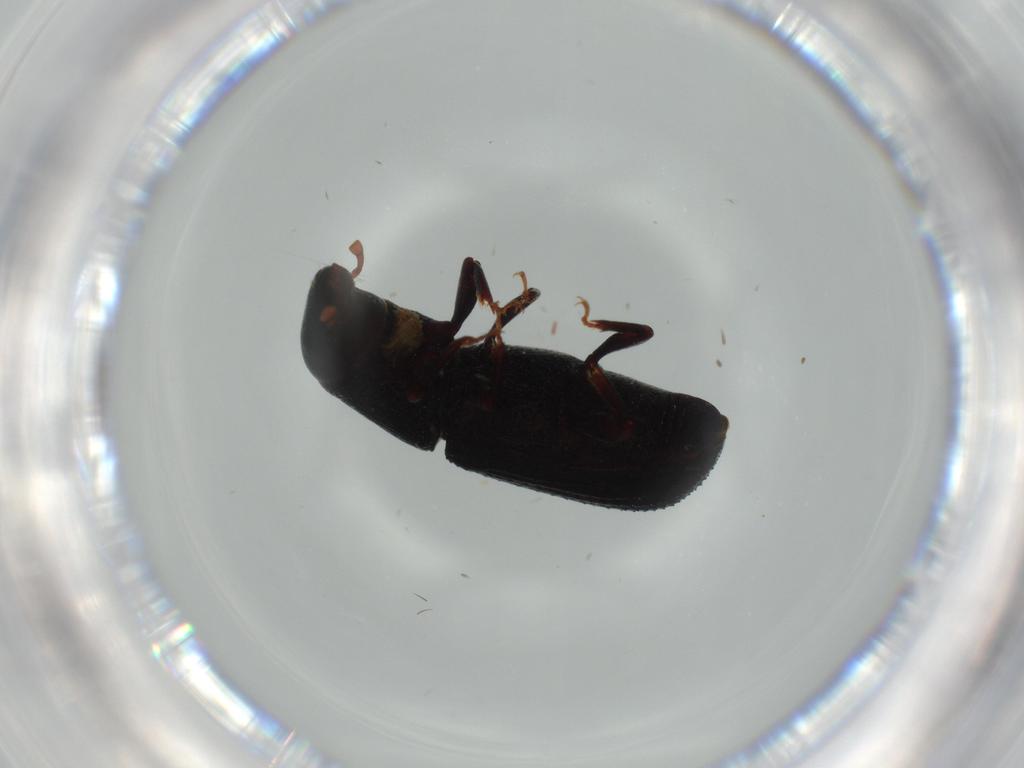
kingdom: Animalia
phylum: Arthropoda
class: Insecta
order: Coleoptera
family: Curculionidae
